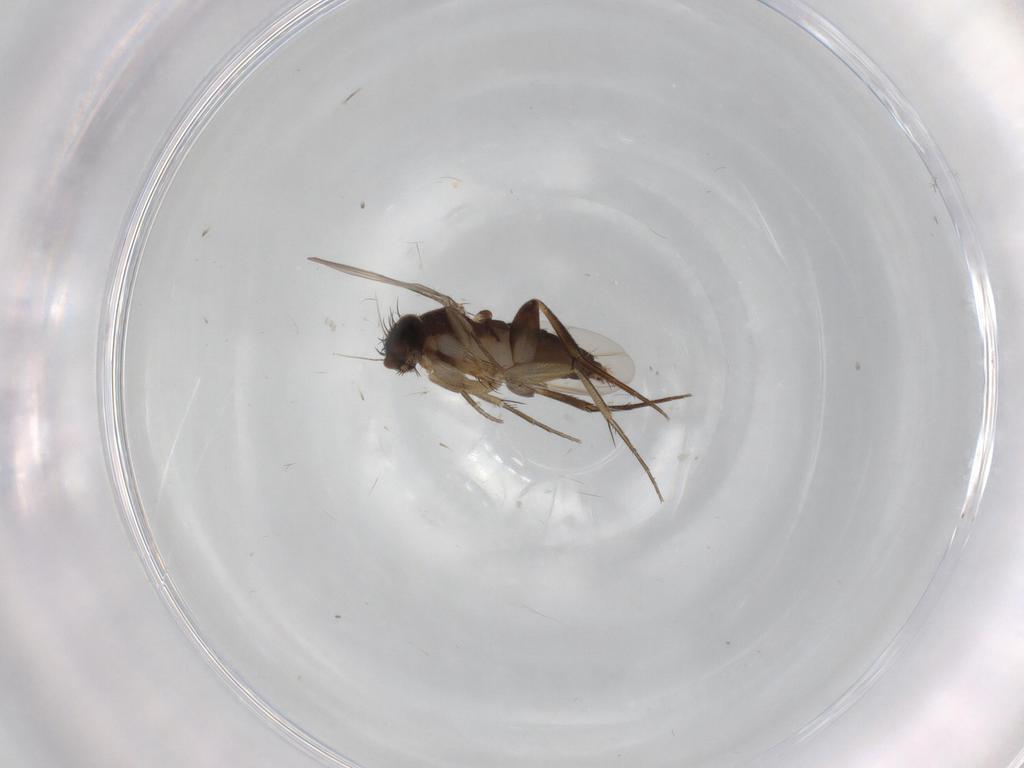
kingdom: Animalia
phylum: Arthropoda
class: Insecta
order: Diptera
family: Phoridae
